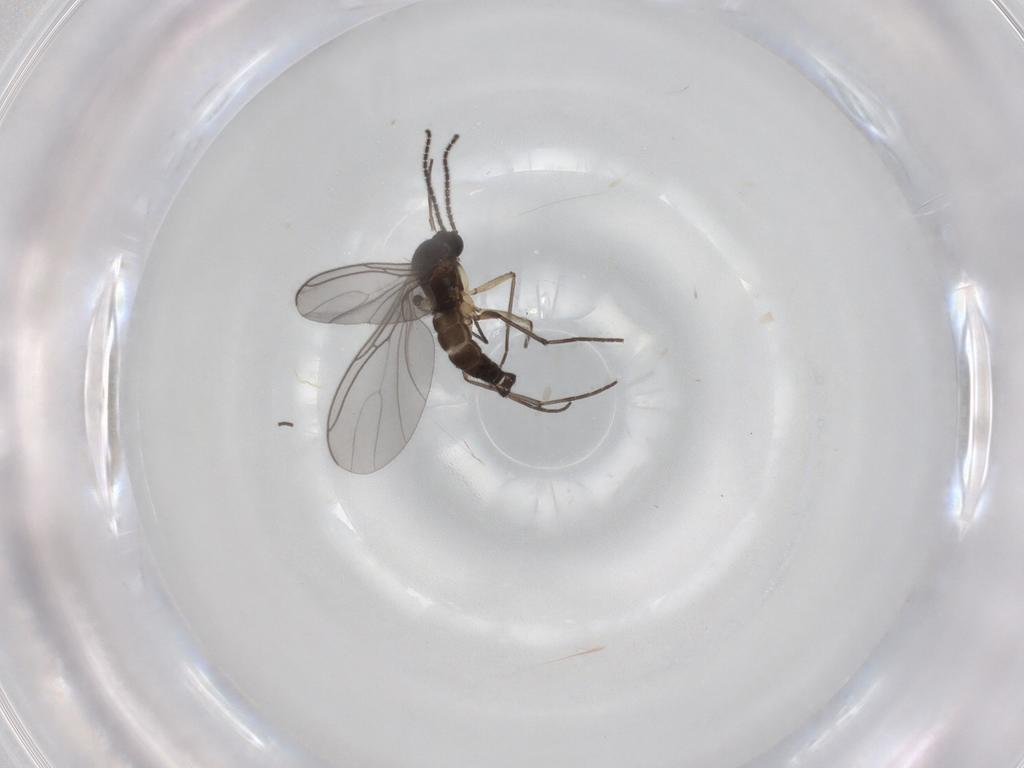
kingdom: Animalia
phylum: Arthropoda
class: Insecta
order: Diptera
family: Sciaridae
